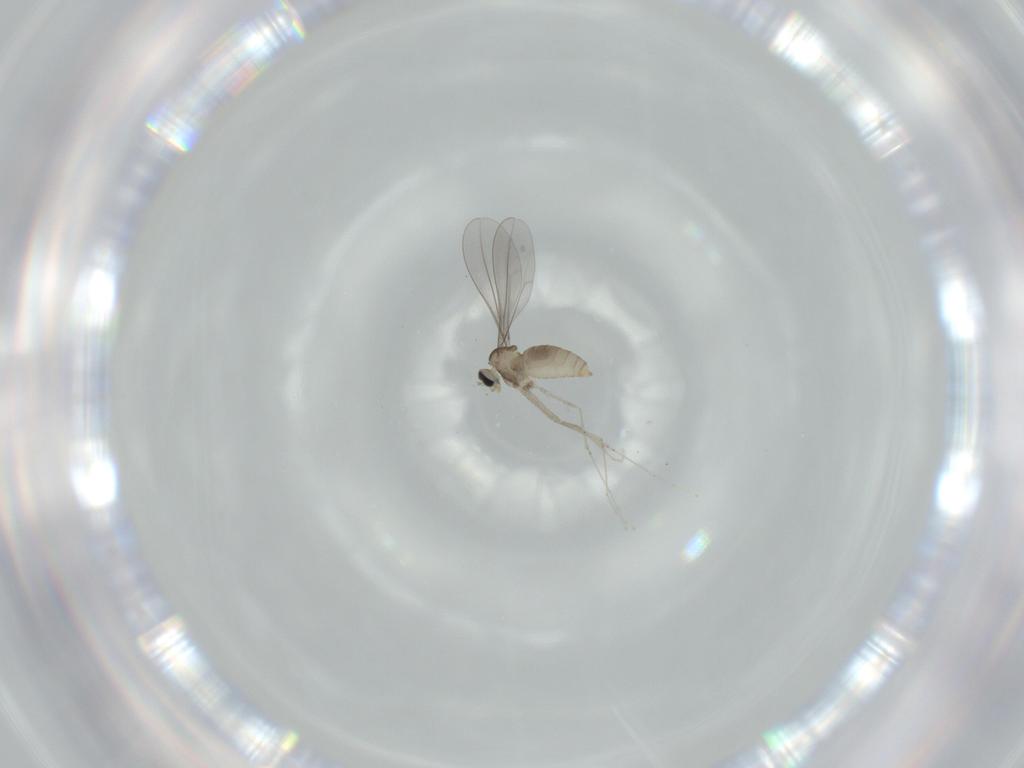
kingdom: Animalia
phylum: Arthropoda
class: Insecta
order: Diptera
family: Cecidomyiidae
